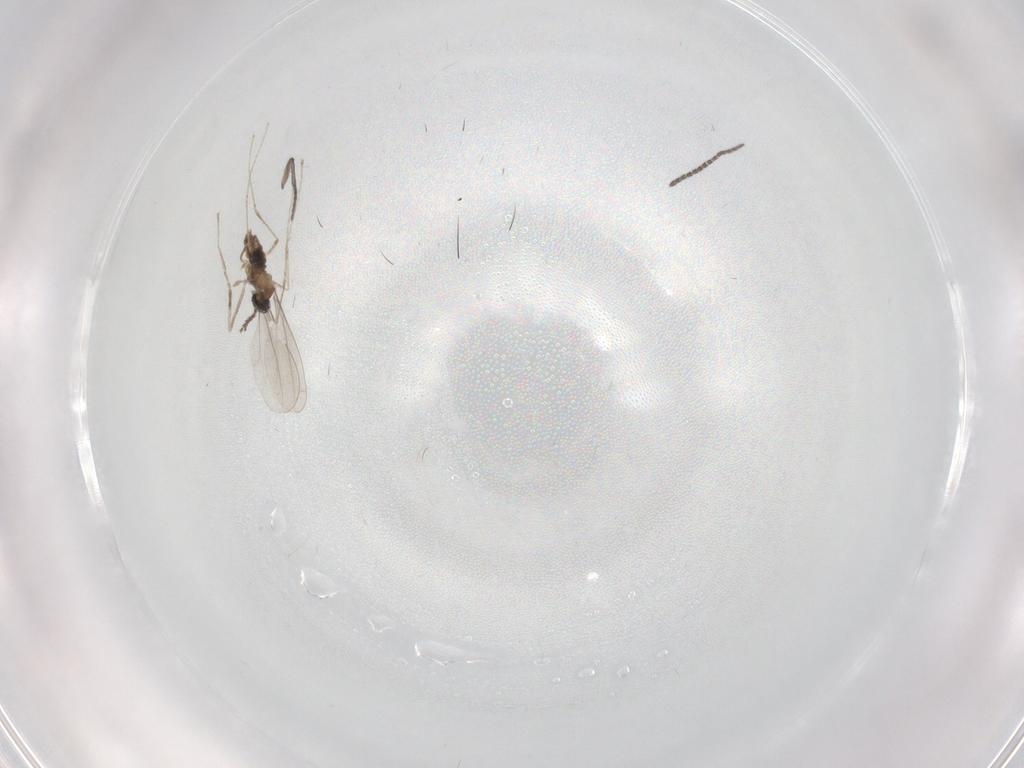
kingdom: Animalia
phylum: Arthropoda
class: Insecta
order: Diptera
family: Sciaridae
